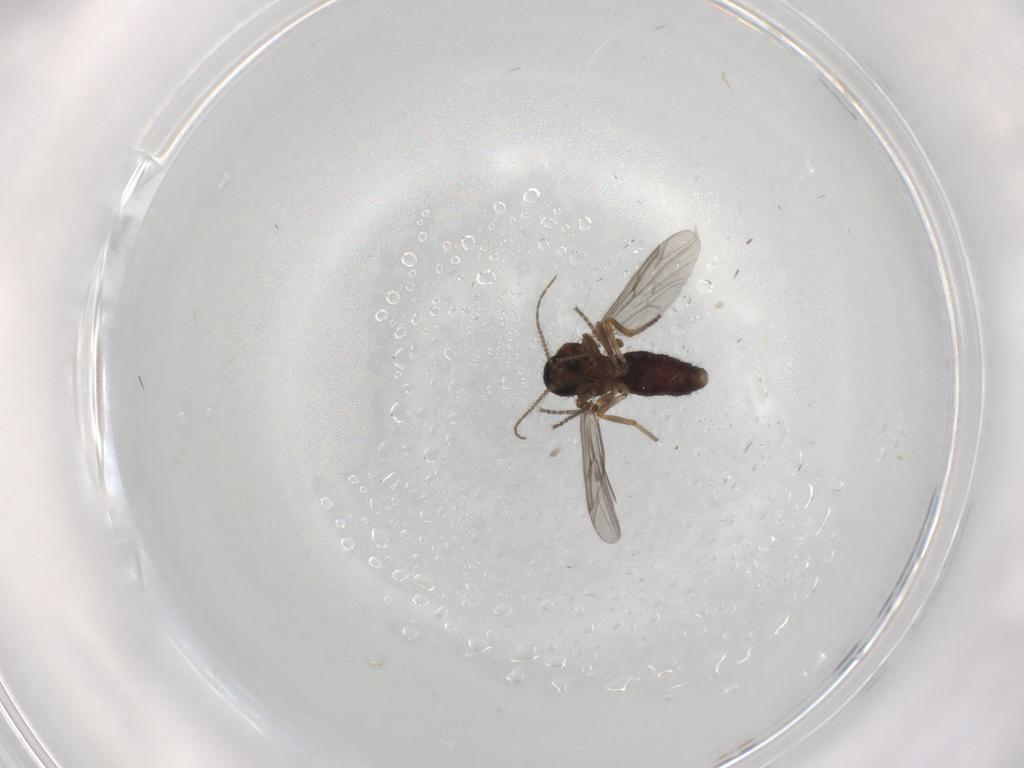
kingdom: Animalia
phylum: Arthropoda
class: Insecta
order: Diptera
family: Ceratopogonidae
